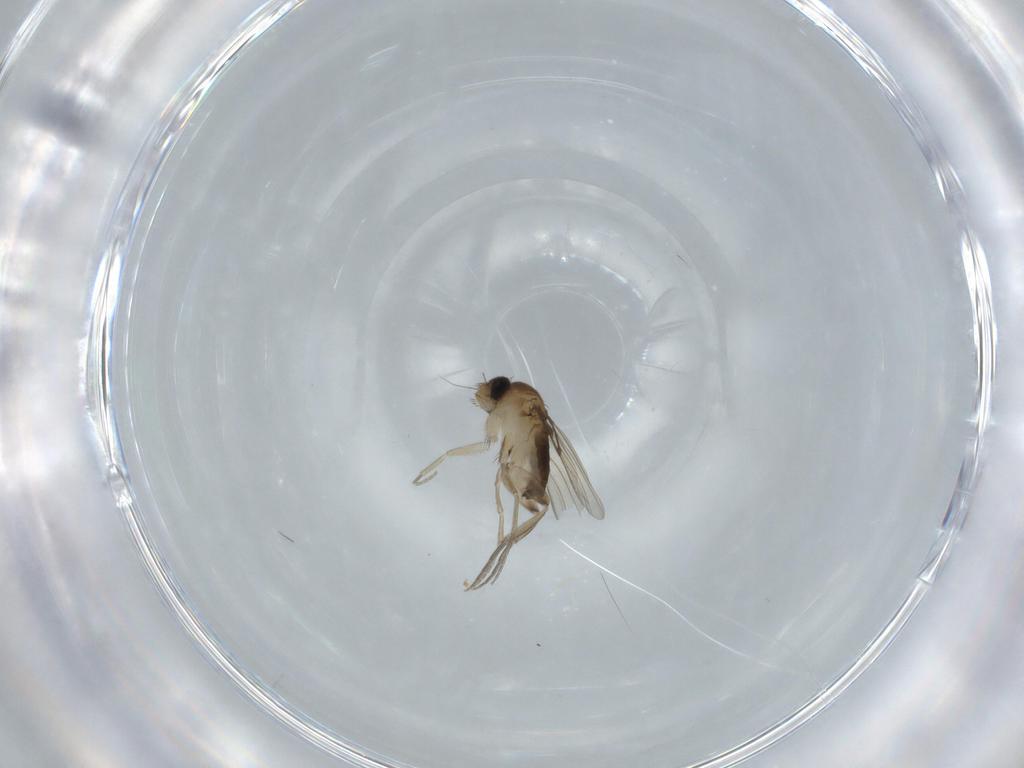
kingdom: Animalia
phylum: Arthropoda
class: Insecta
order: Diptera
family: Phoridae
